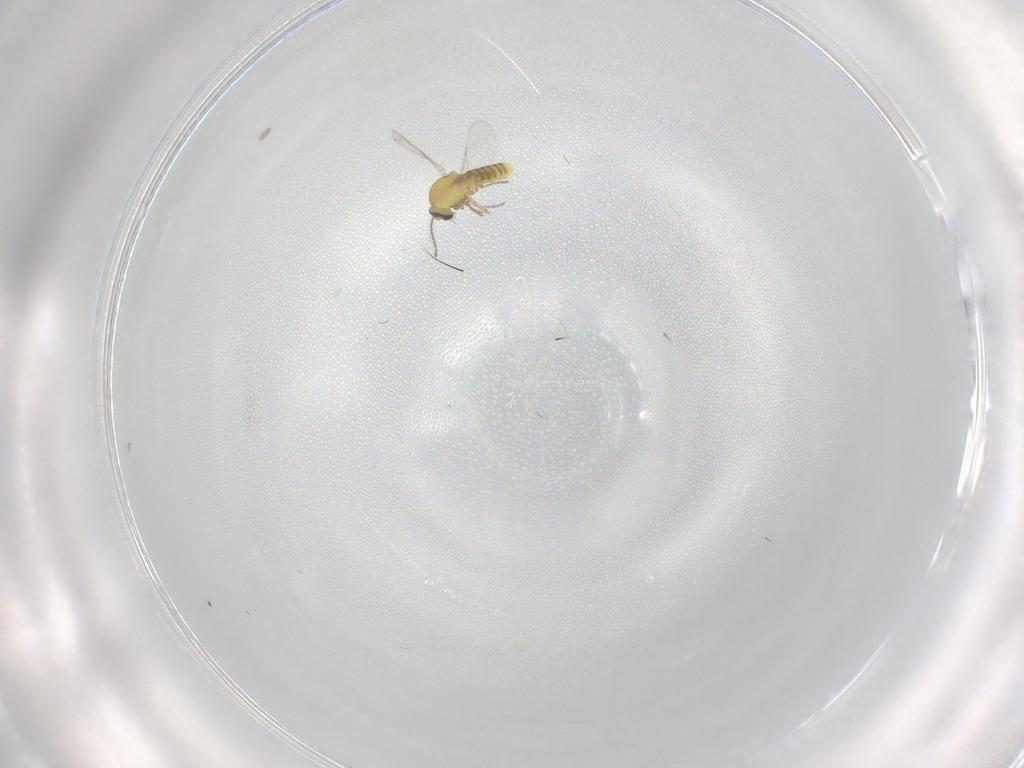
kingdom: Animalia
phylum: Arthropoda
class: Insecta
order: Diptera
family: Ceratopogonidae
